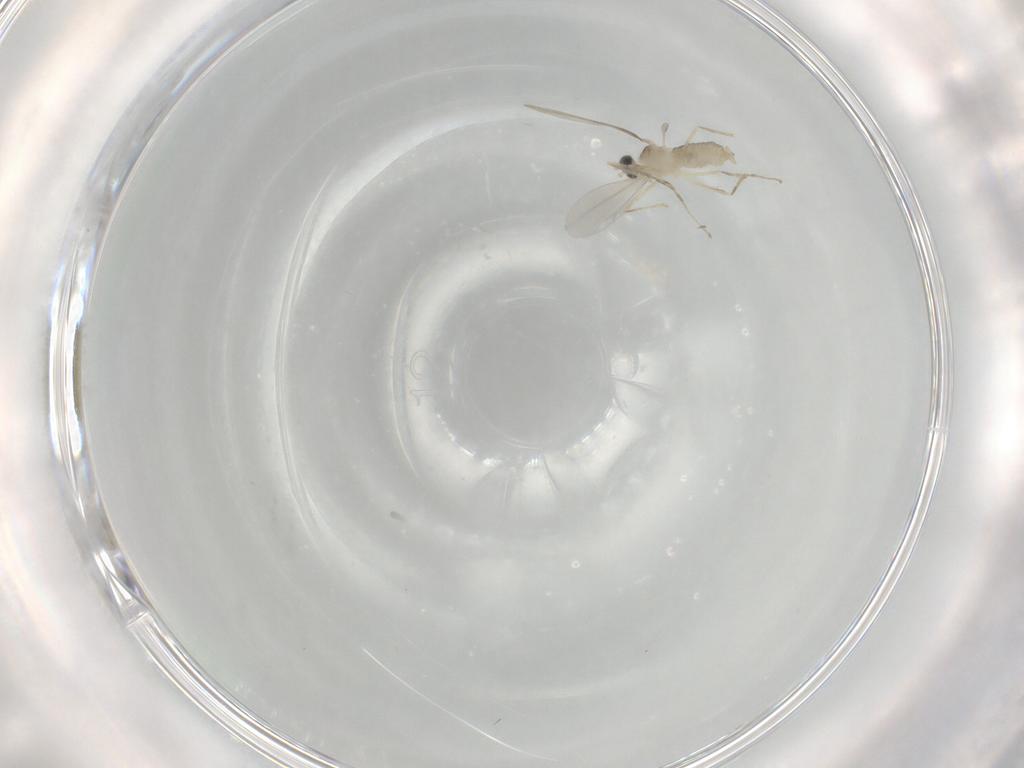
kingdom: Animalia
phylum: Arthropoda
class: Insecta
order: Diptera
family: Cecidomyiidae
